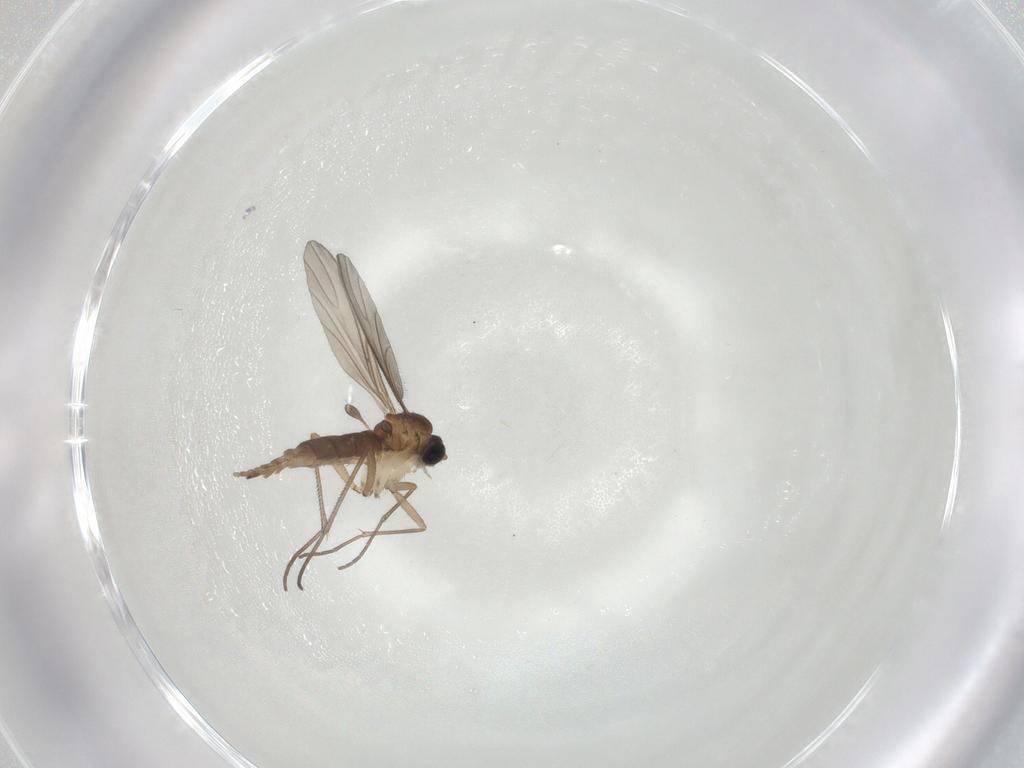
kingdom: Animalia
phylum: Arthropoda
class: Insecta
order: Diptera
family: Sciaridae
